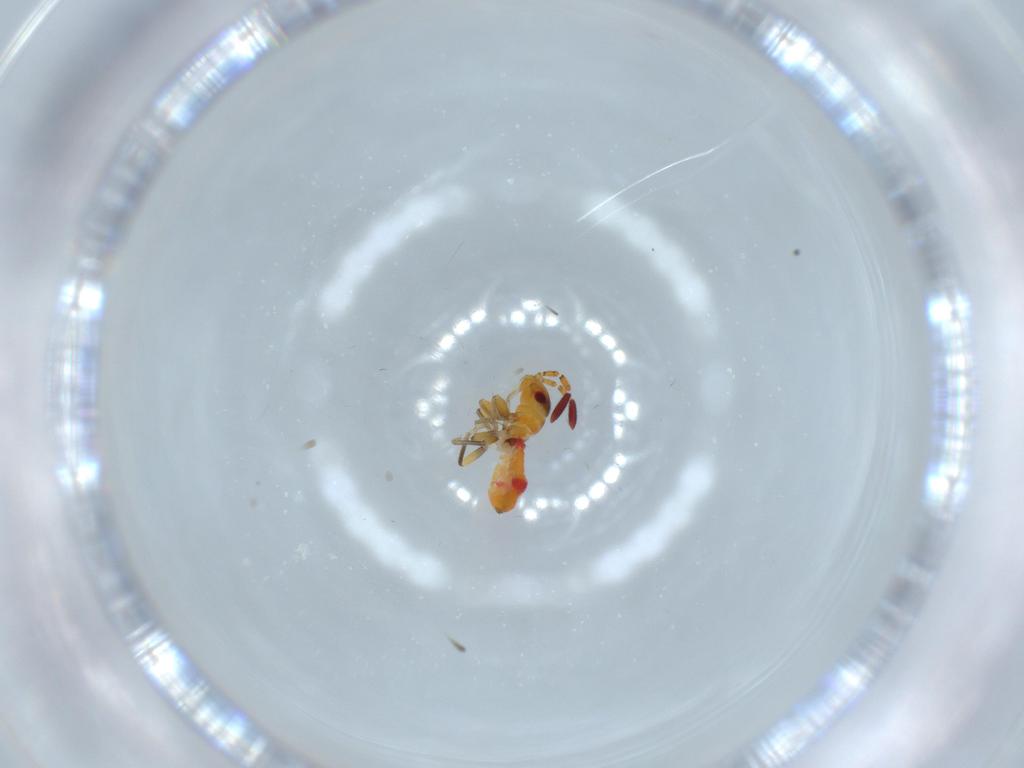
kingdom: Animalia
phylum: Arthropoda
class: Insecta
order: Hemiptera
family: Rhyparochromidae
